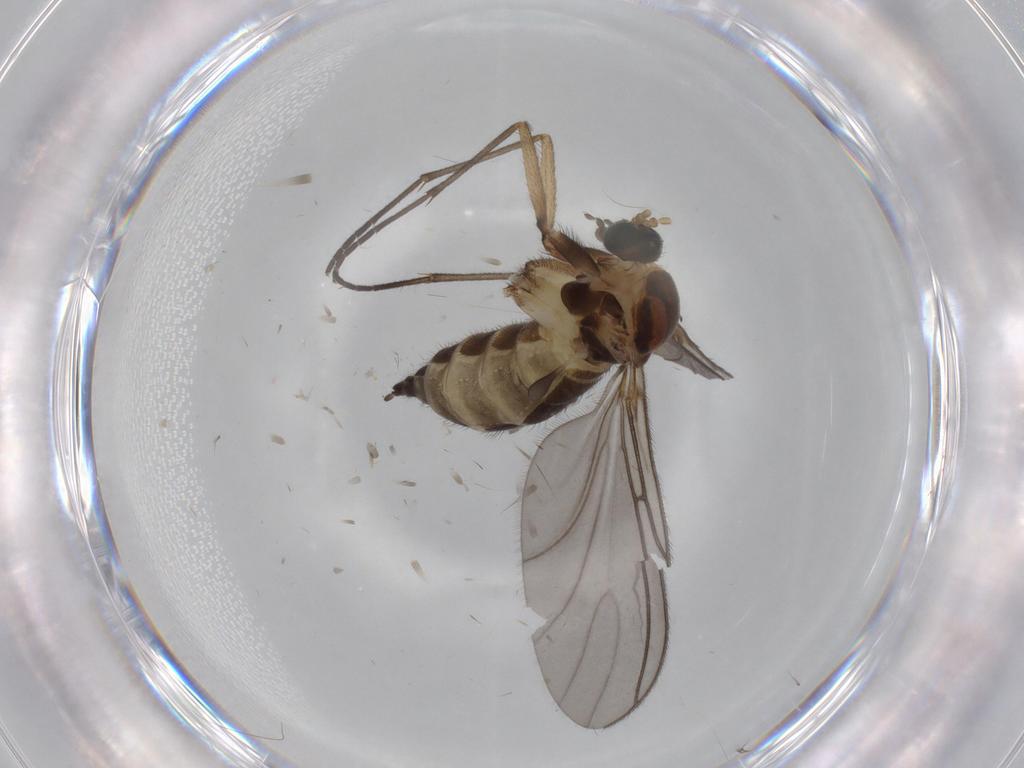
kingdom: Animalia
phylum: Arthropoda
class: Insecta
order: Diptera
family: Sciaridae
